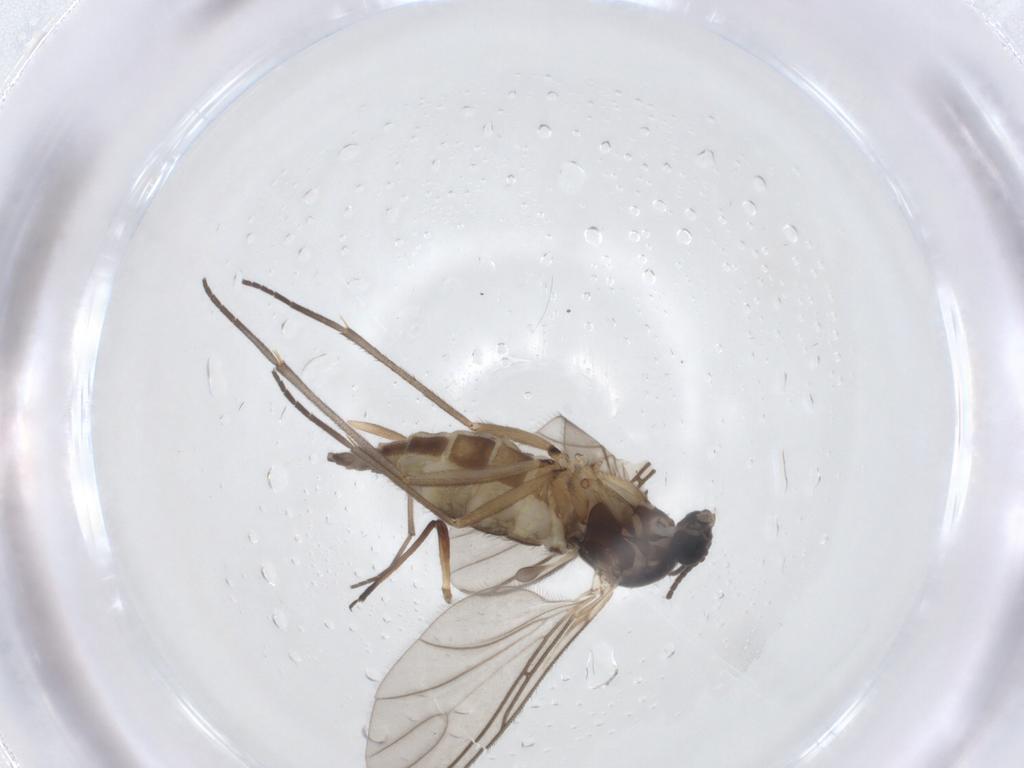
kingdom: Animalia
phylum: Arthropoda
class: Insecta
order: Diptera
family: Sciaridae
